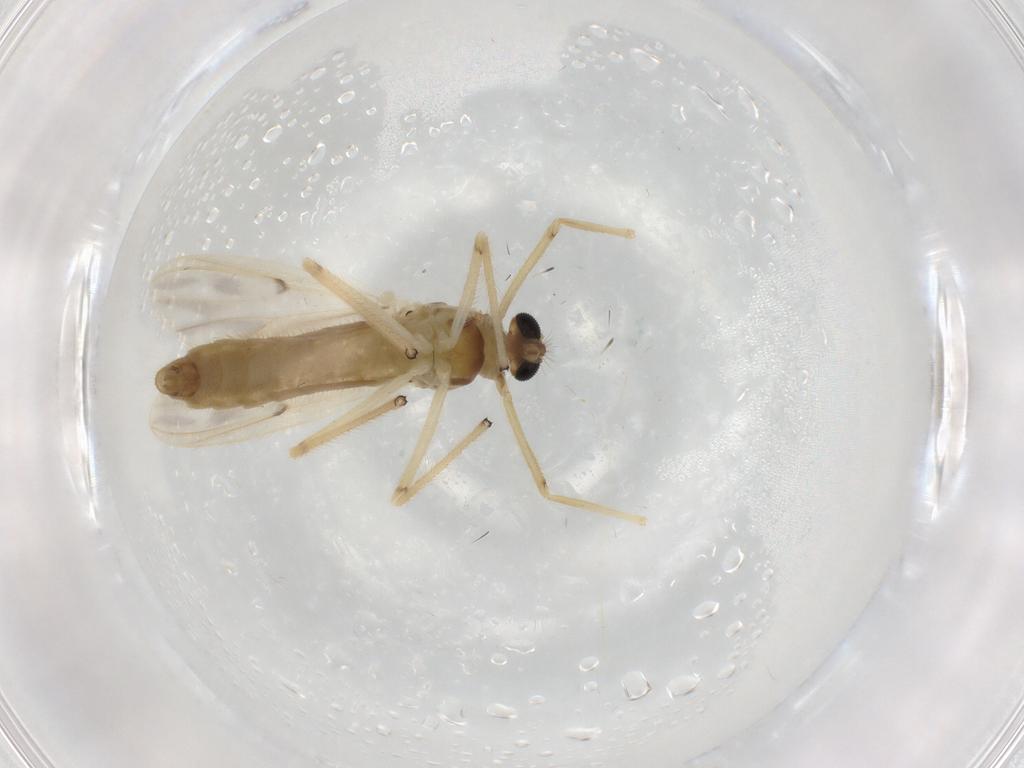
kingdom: Animalia
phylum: Arthropoda
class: Insecta
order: Diptera
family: Chironomidae
